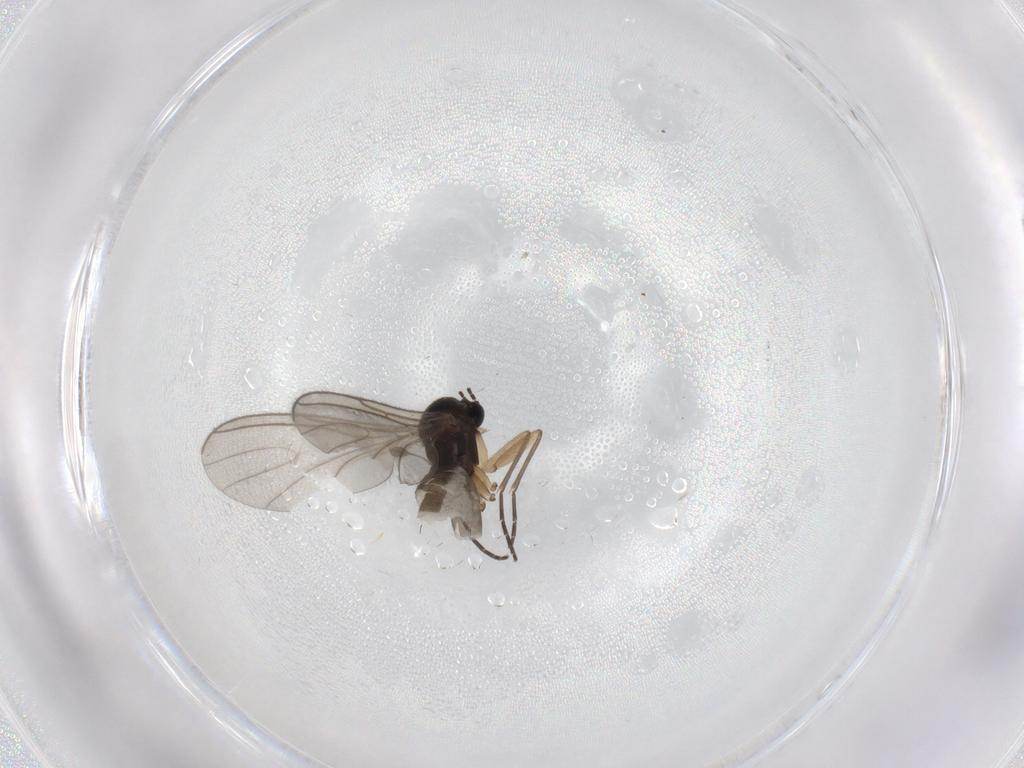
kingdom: Animalia
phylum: Arthropoda
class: Insecta
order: Diptera
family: Sciaridae
